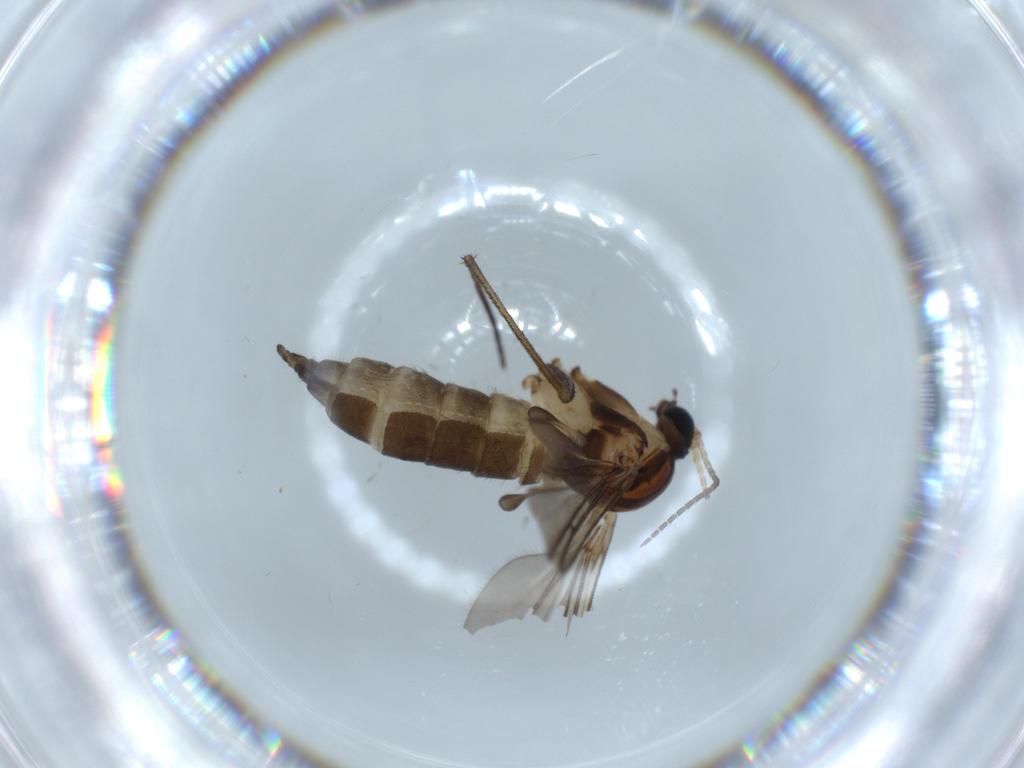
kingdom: Animalia
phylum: Arthropoda
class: Insecta
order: Diptera
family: Sciaridae
